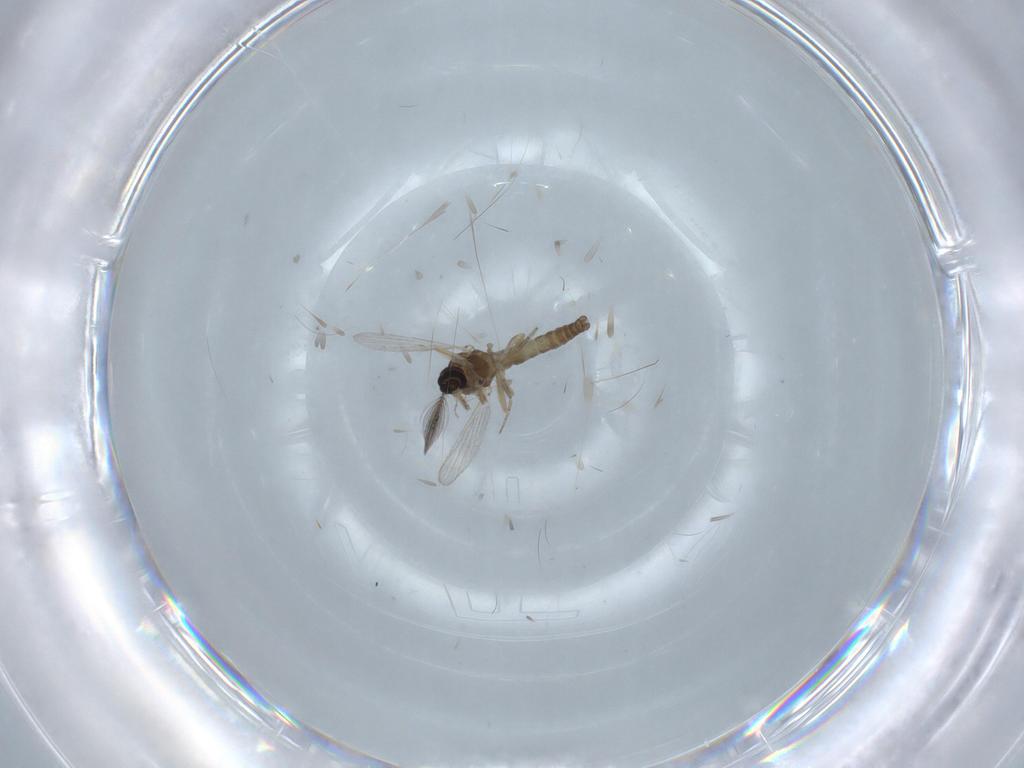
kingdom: Animalia
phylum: Arthropoda
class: Insecta
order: Diptera
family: Ceratopogonidae
